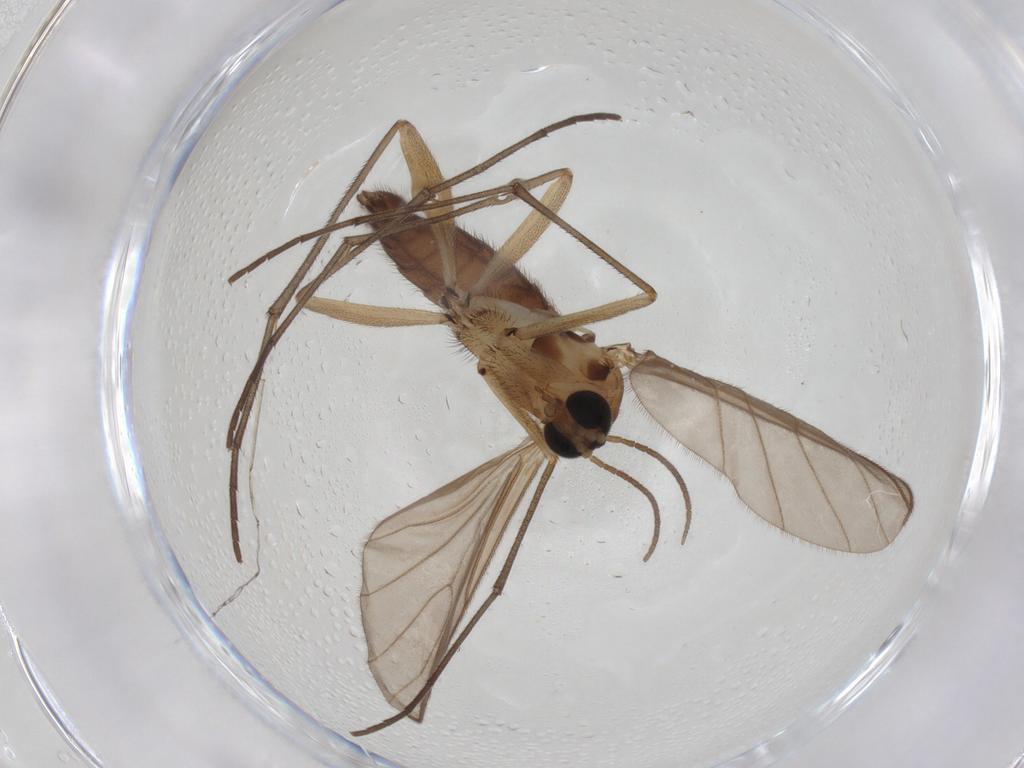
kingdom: Animalia
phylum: Arthropoda
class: Insecta
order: Diptera
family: Sciaridae
